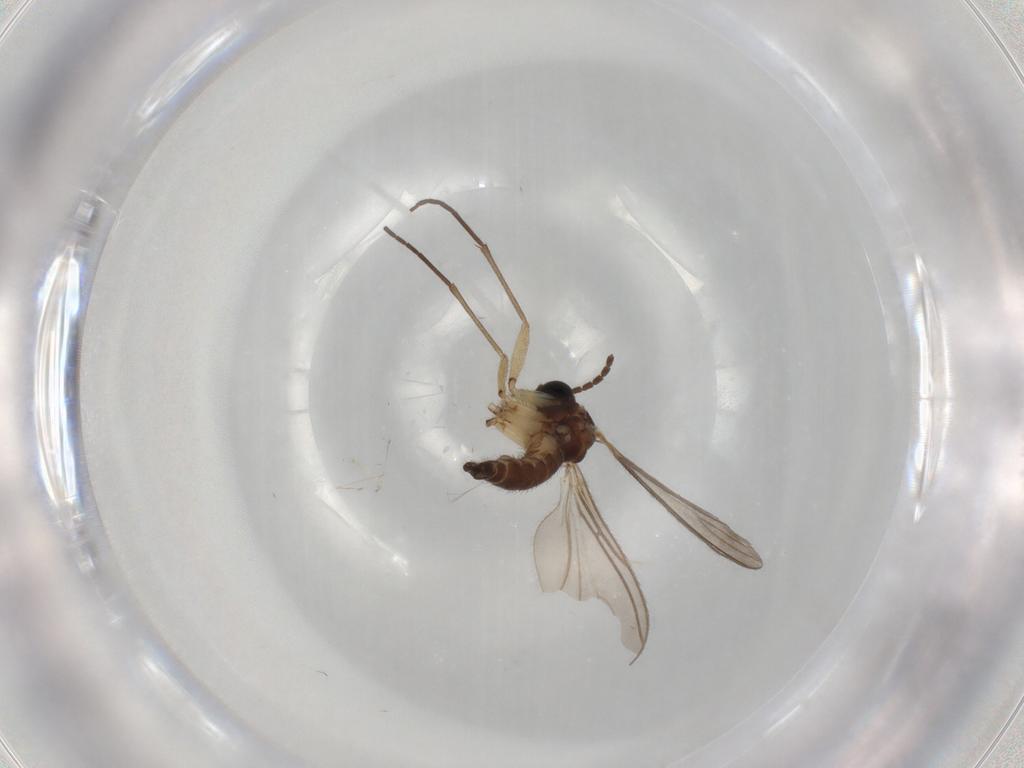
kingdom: Animalia
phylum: Arthropoda
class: Insecta
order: Diptera
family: Sciaridae
